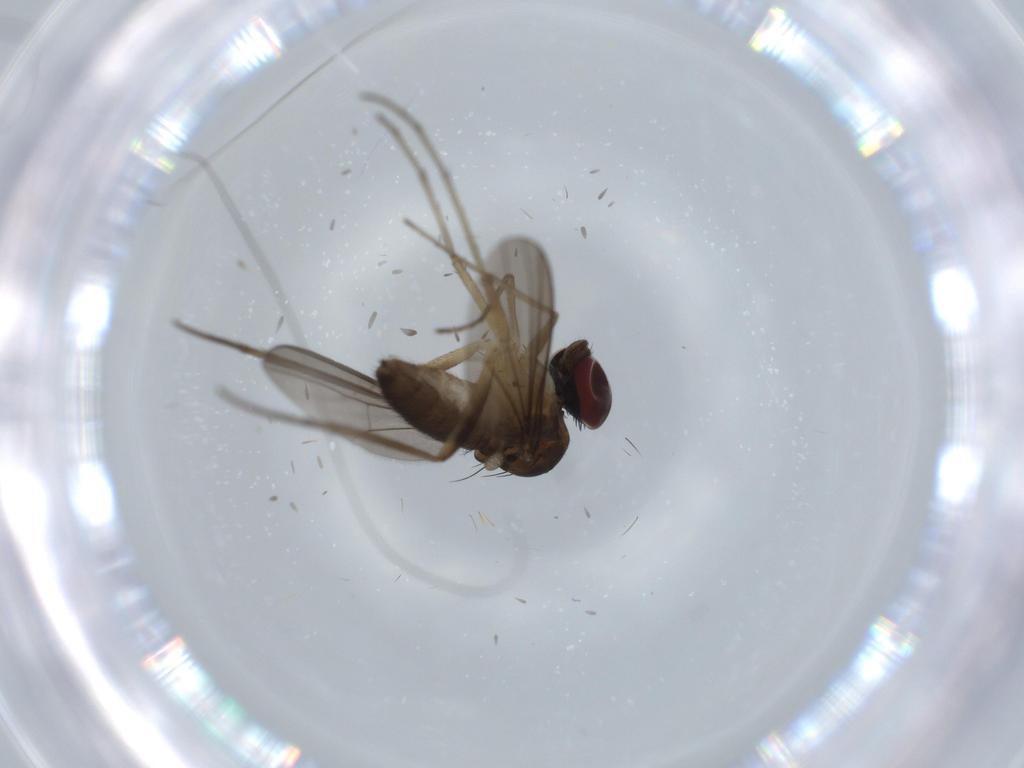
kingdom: Animalia
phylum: Arthropoda
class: Insecta
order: Diptera
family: Dolichopodidae
